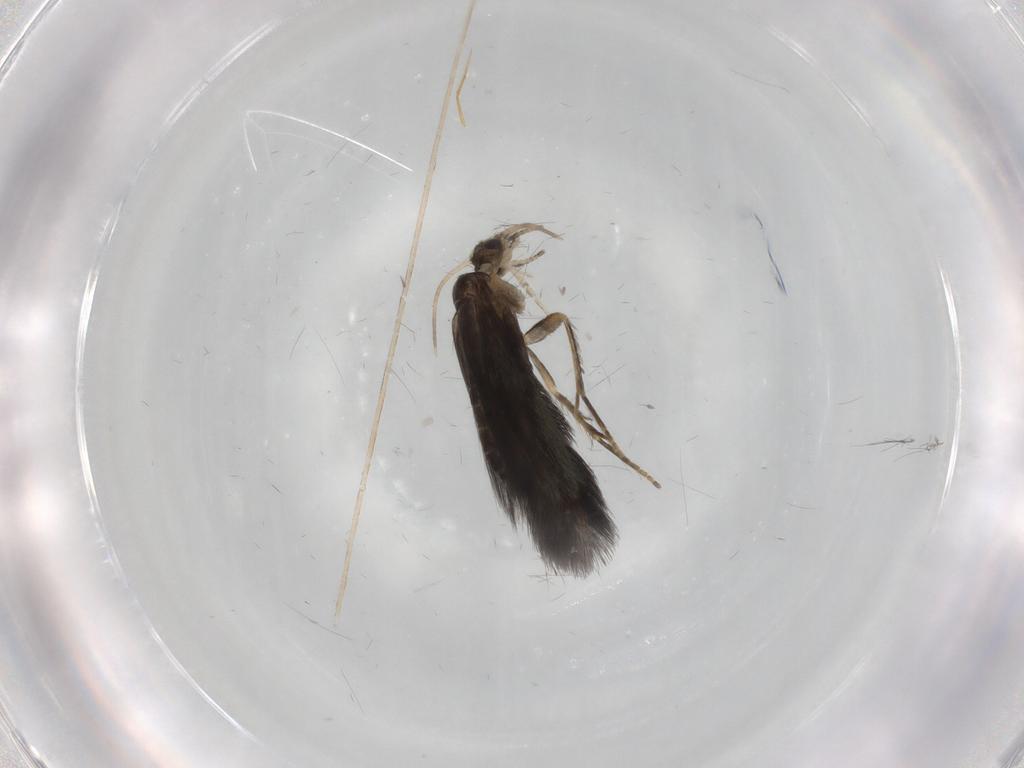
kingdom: Animalia
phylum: Arthropoda
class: Insecta
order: Trichoptera
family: Hydroptilidae
